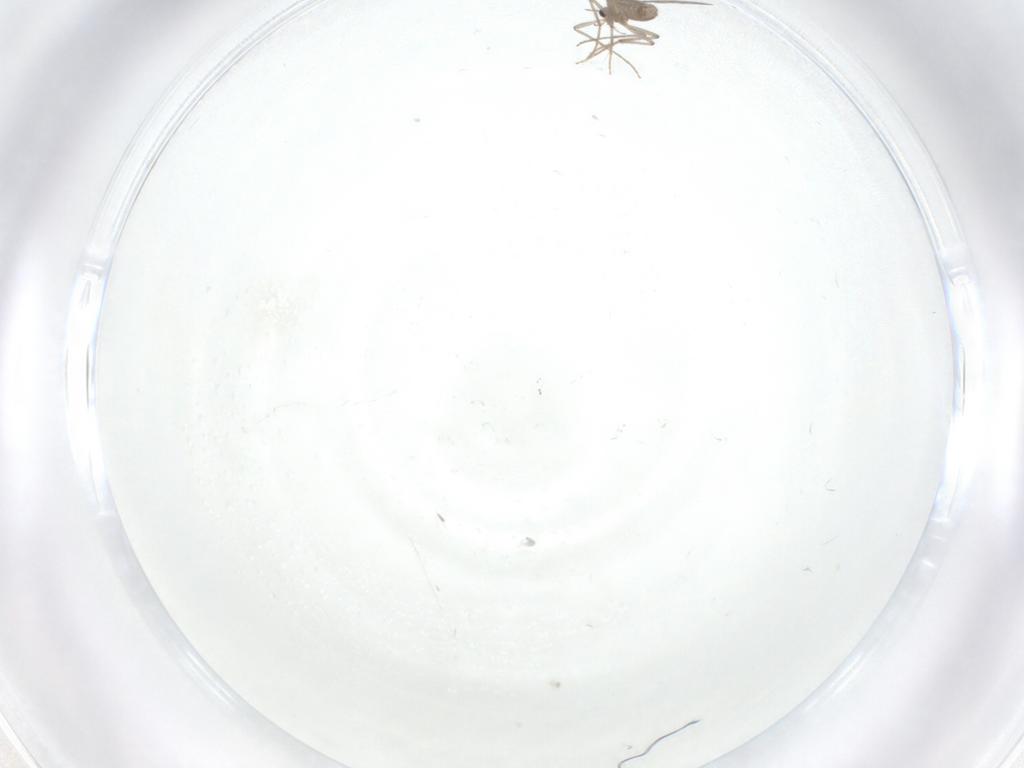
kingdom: Animalia
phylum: Arthropoda
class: Insecta
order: Diptera
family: Chironomidae
